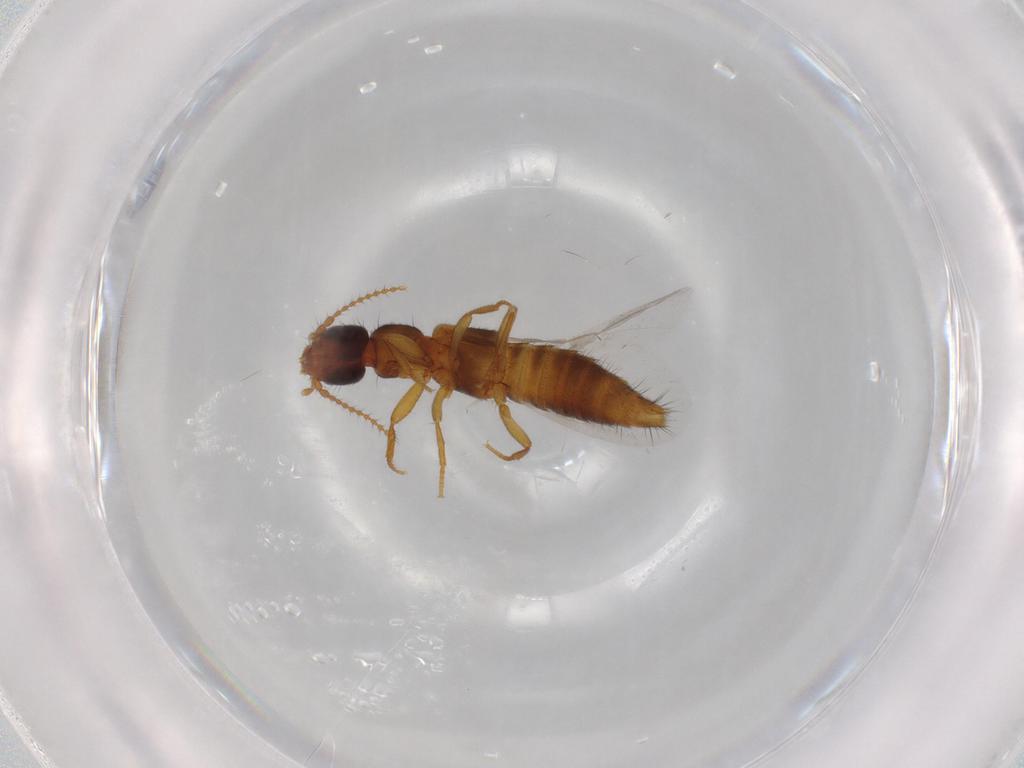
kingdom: Animalia
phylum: Arthropoda
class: Insecta
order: Coleoptera
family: Staphylinidae
